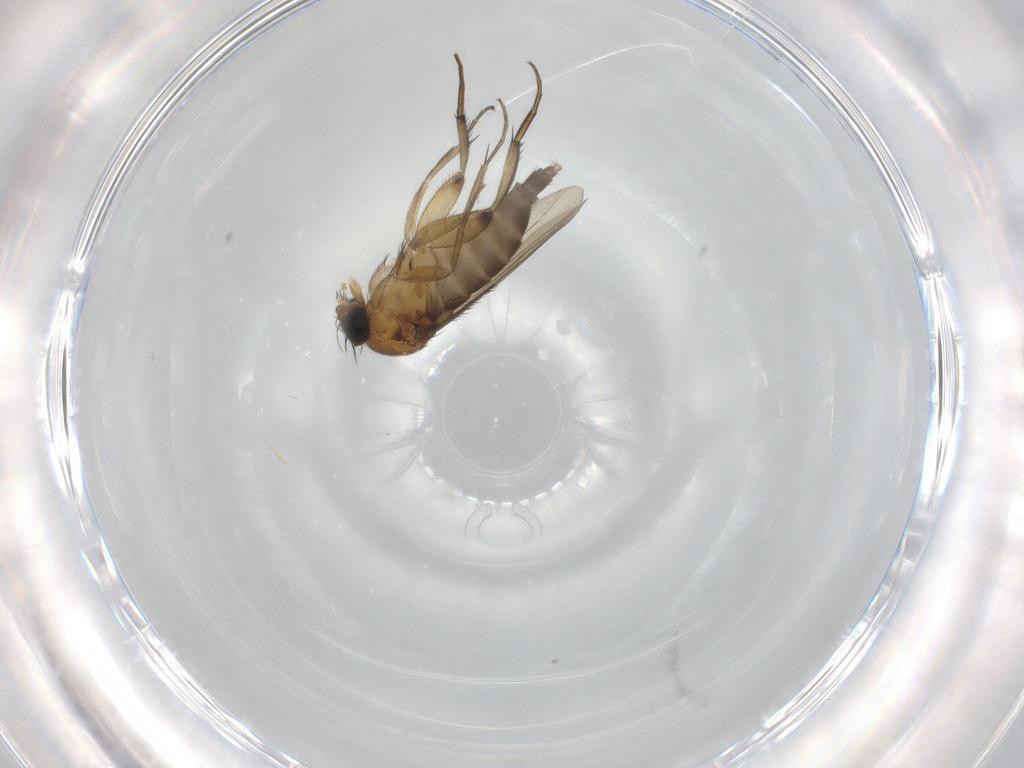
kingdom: Animalia
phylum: Arthropoda
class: Insecta
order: Diptera
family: Phoridae
